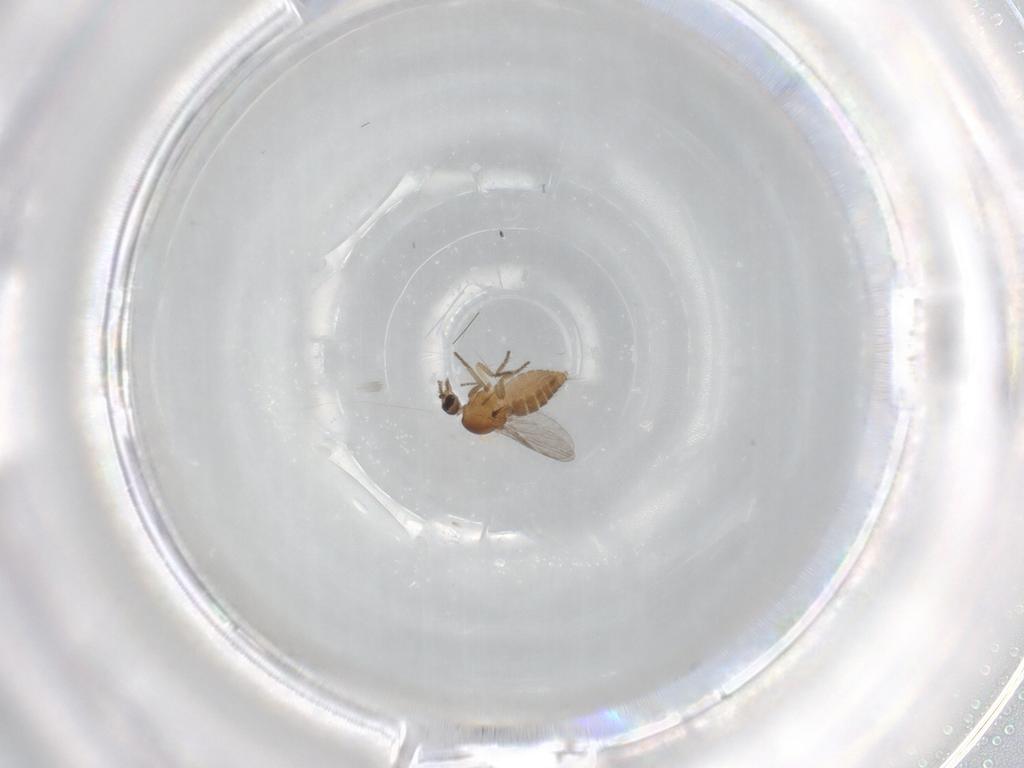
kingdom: Animalia
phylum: Arthropoda
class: Insecta
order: Diptera
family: Ceratopogonidae
